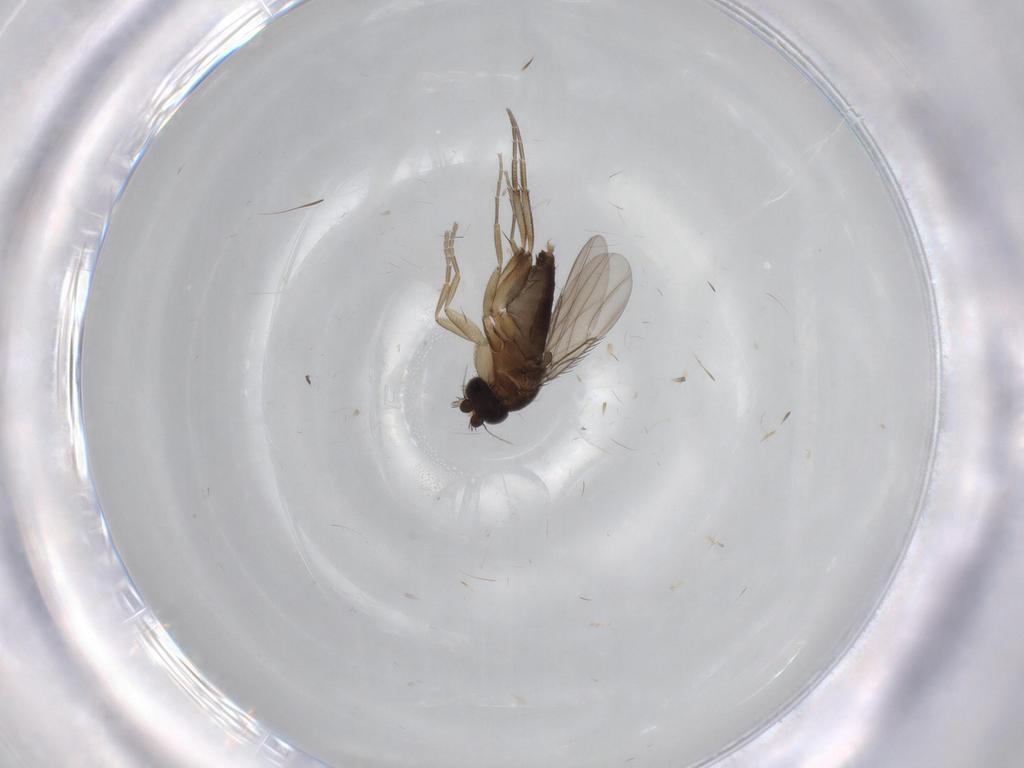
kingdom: Animalia
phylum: Arthropoda
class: Insecta
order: Diptera
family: Phoridae
